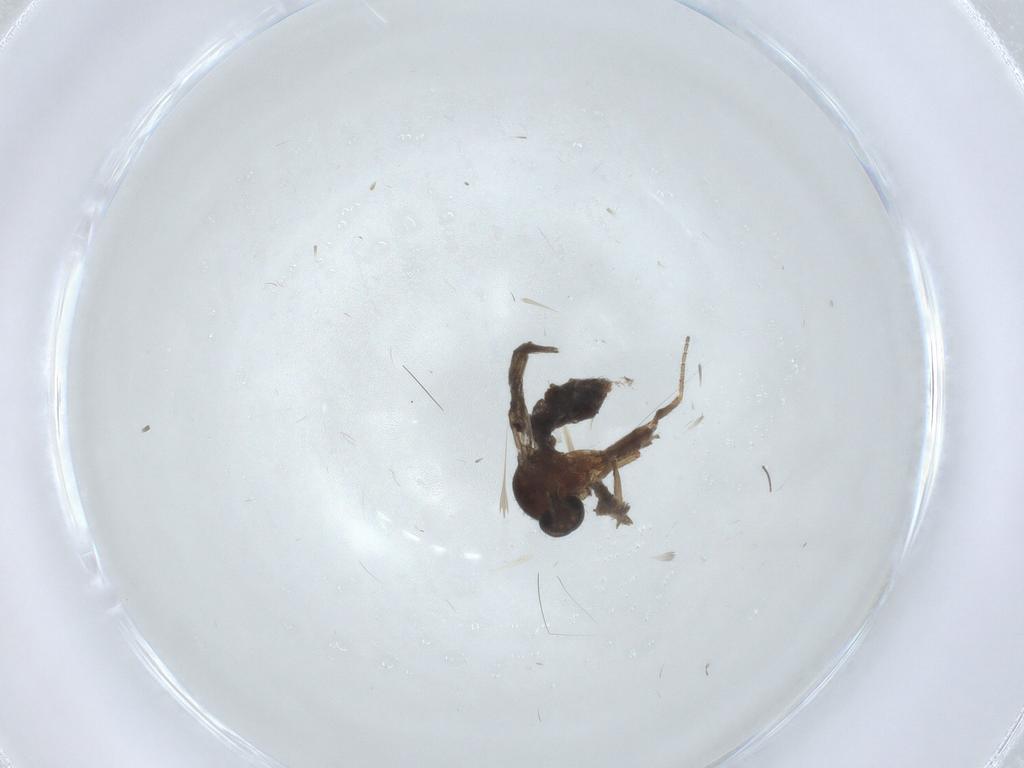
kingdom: Animalia
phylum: Arthropoda
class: Insecta
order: Diptera
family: Ceratopogonidae
